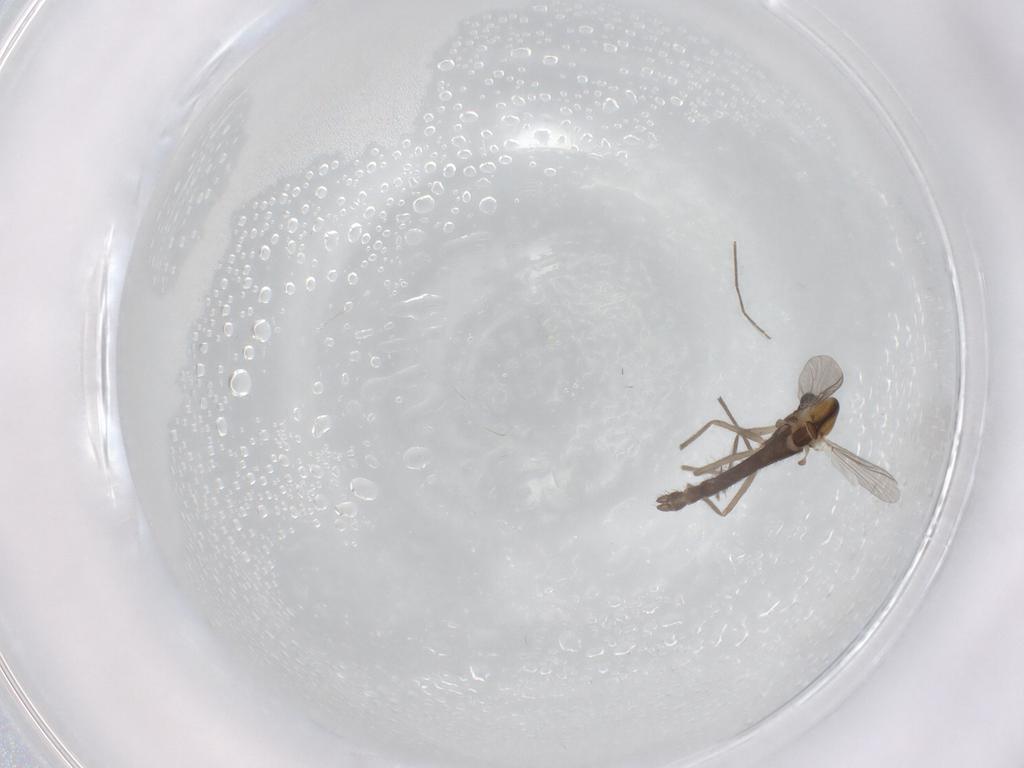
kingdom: Animalia
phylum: Arthropoda
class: Insecta
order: Diptera
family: Chironomidae
